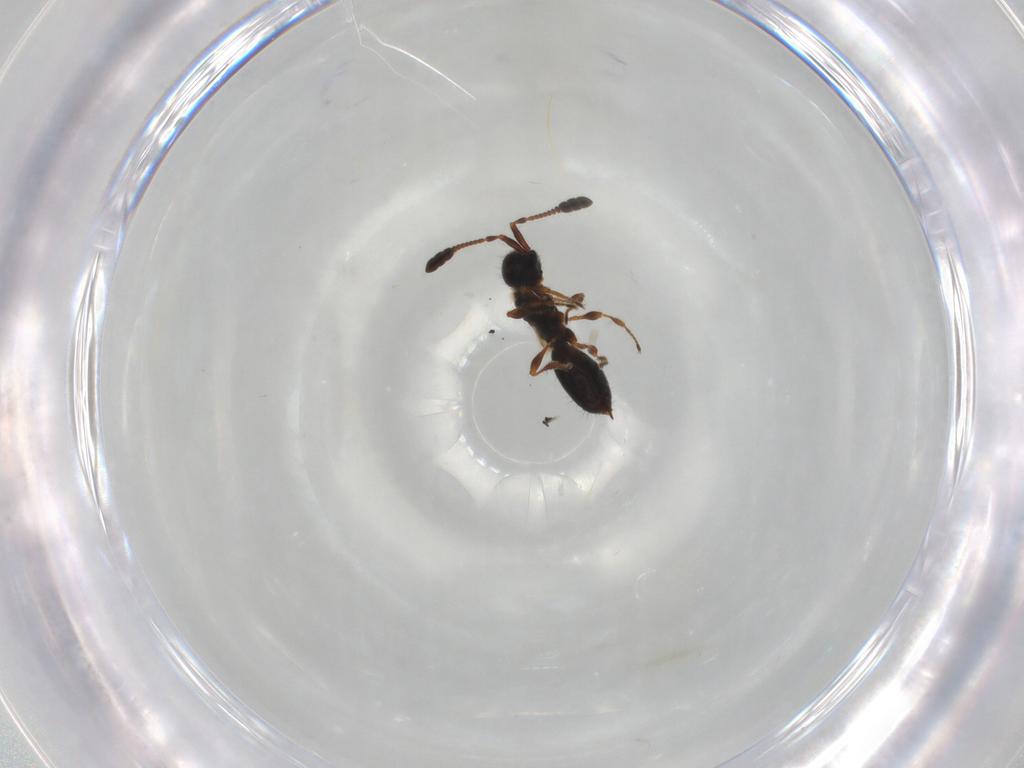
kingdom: Animalia
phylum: Arthropoda
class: Insecta
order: Hymenoptera
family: Diapriidae
